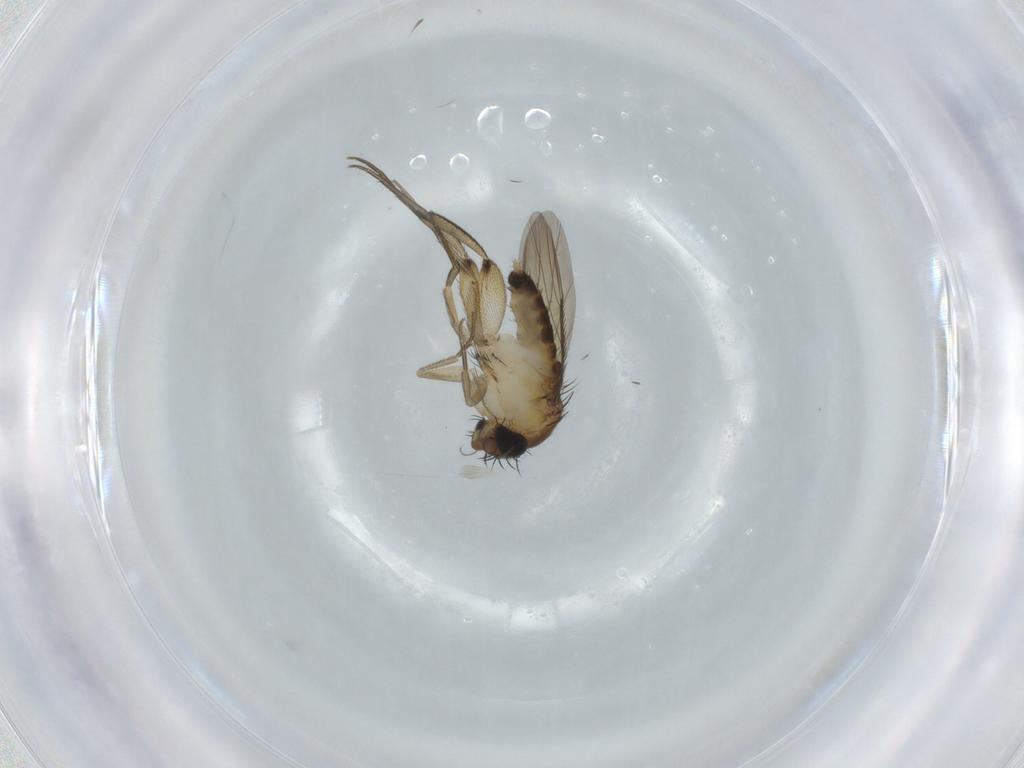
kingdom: Animalia
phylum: Arthropoda
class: Insecta
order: Diptera
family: Phoridae
